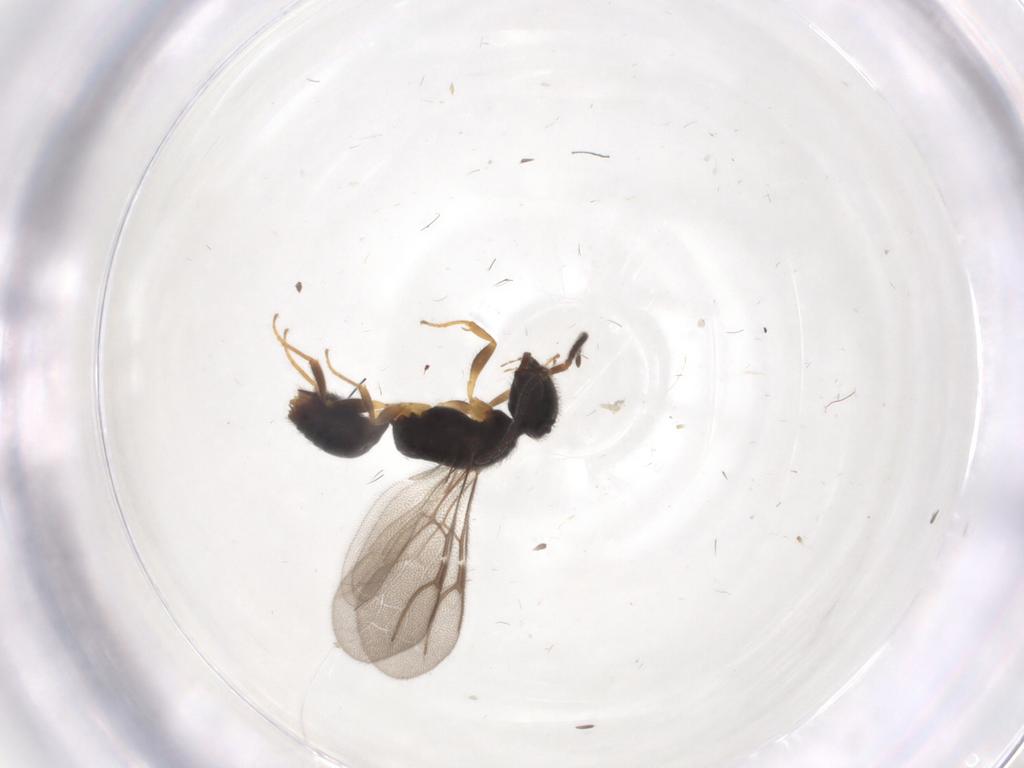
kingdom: Animalia
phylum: Arthropoda
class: Insecta
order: Hymenoptera
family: Bethylidae
